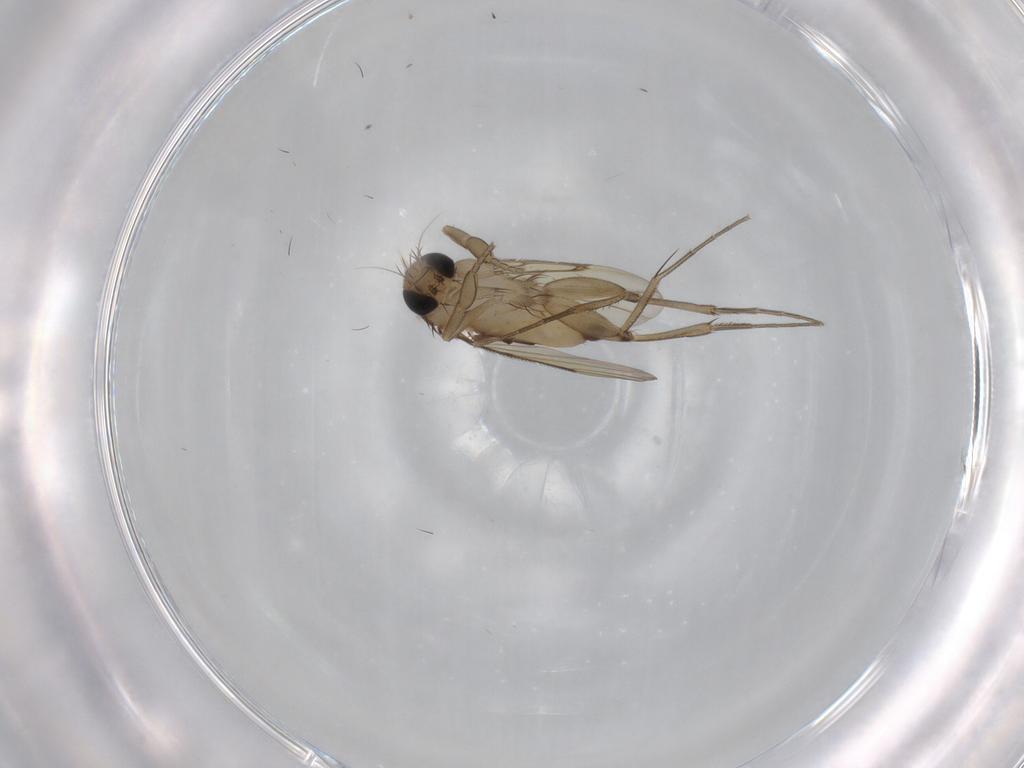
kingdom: Animalia
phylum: Arthropoda
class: Insecta
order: Diptera
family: Phoridae
